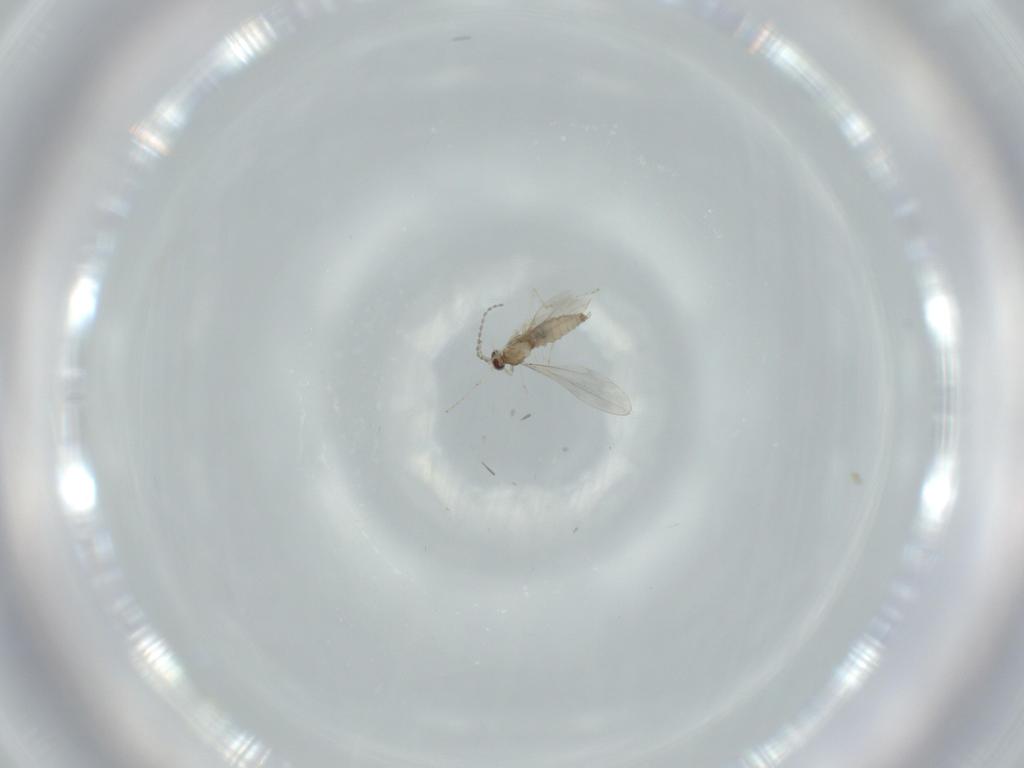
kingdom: Animalia
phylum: Arthropoda
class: Insecta
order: Diptera
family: Cecidomyiidae
